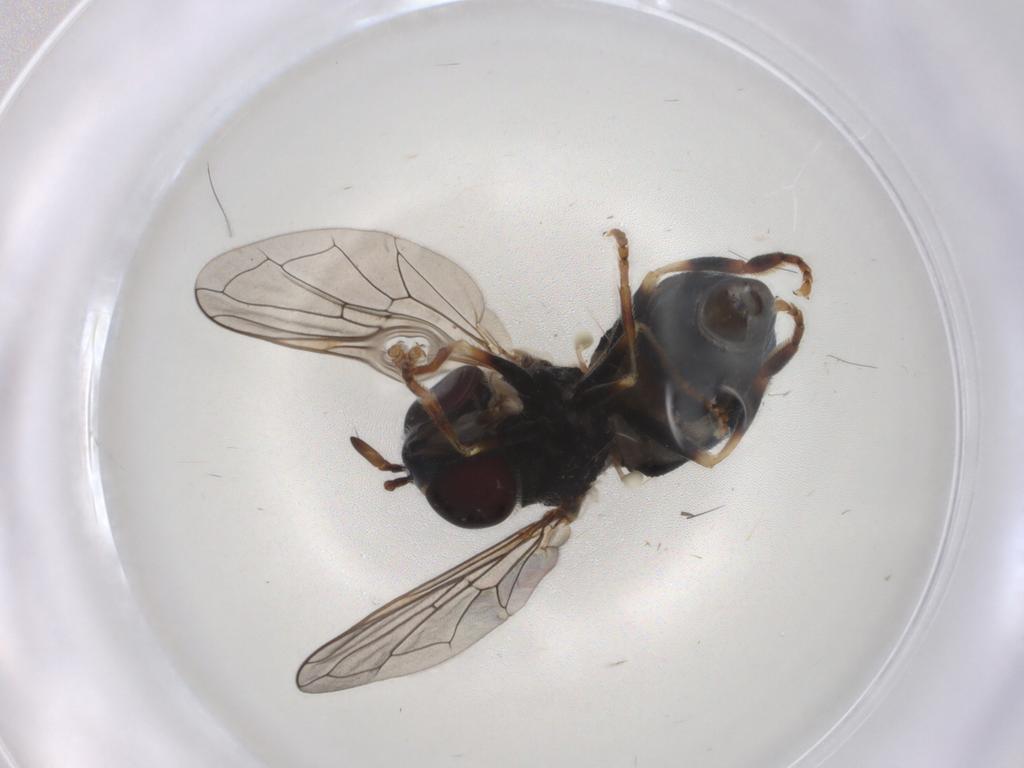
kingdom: Animalia
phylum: Arthropoda
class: Insecta
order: Diptera
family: Syrphidae
